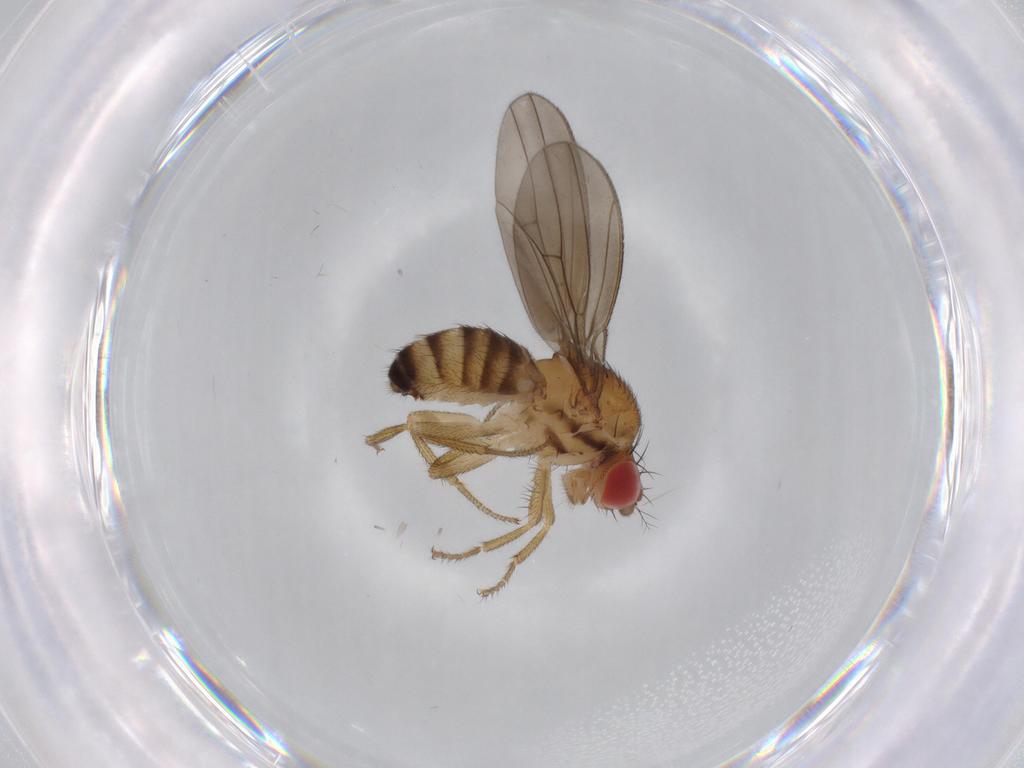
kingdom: Animalia
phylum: Arthropoda
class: Insecta
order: Diptera
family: Drosophilidae
